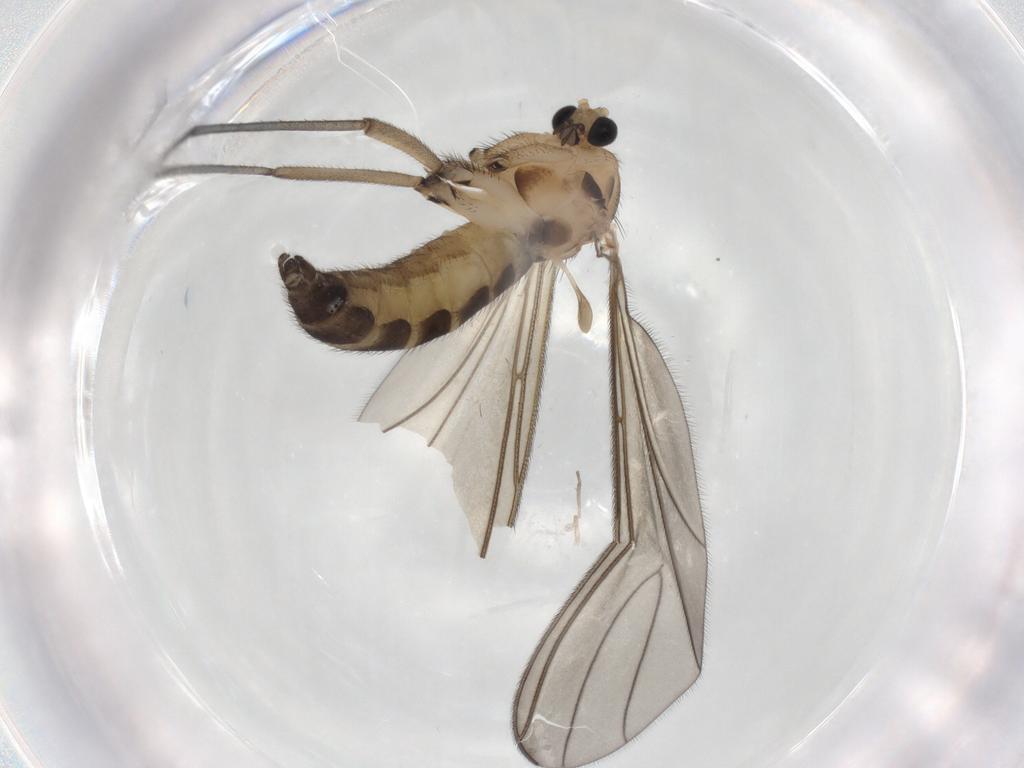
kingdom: Animalia
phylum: Arthropoda
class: Insecta
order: Diptera
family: Sciaridae
